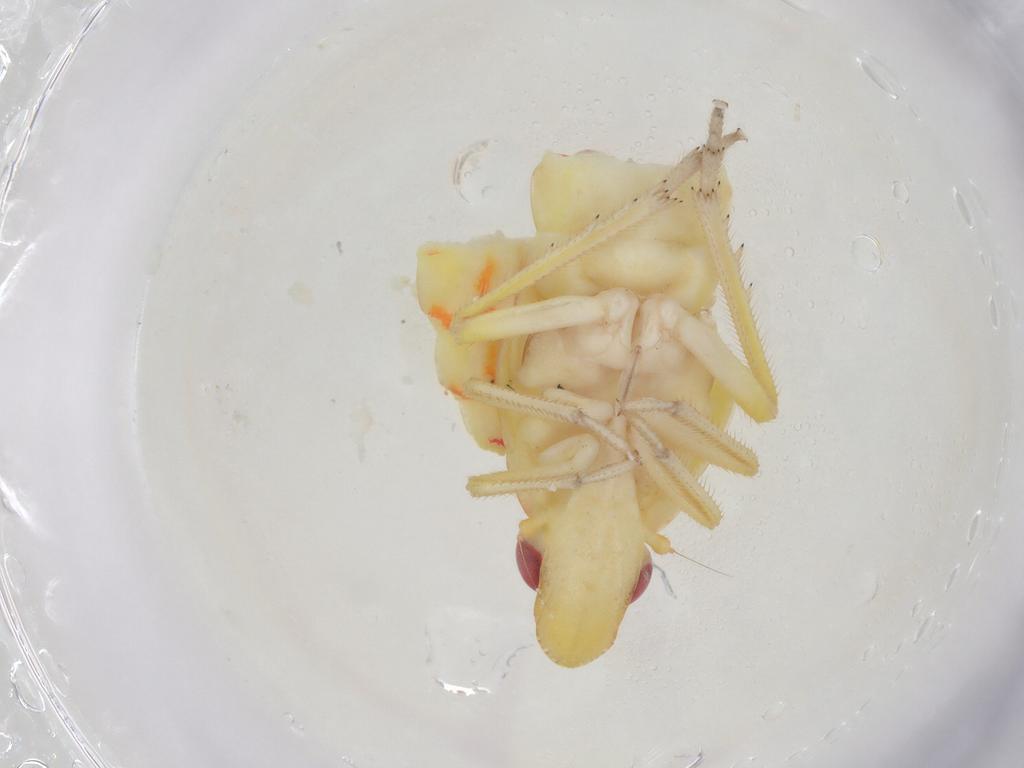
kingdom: Animalia
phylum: Arthropoda
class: Insecta
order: Hemiptera
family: Tropiduchidae
